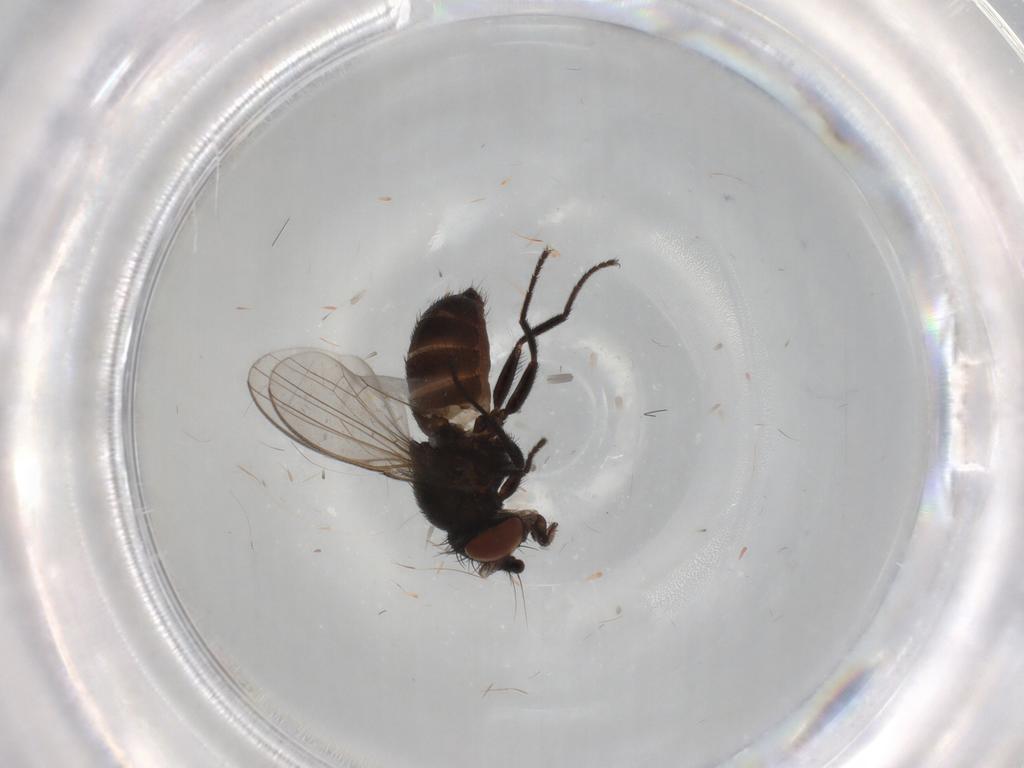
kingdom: Animalia
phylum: Arthropoda
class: Insecta
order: Diptera
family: Milichiidae
